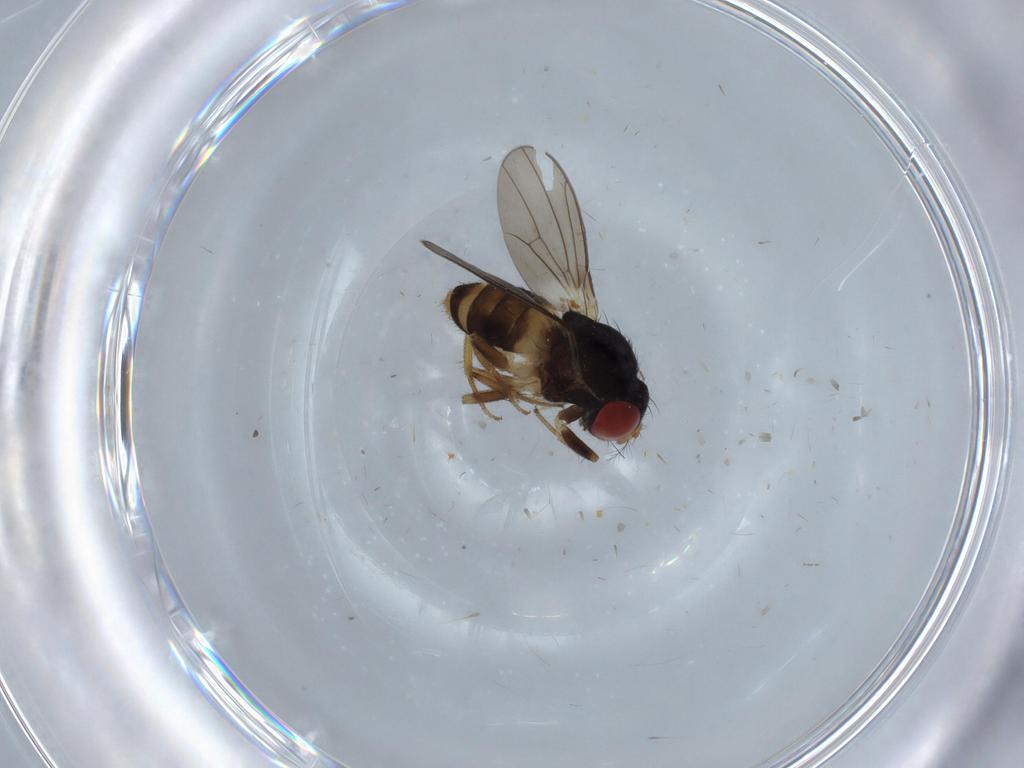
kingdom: Animalia
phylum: Arthropoda
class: Insecta
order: Diptera
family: Drosophilidae
